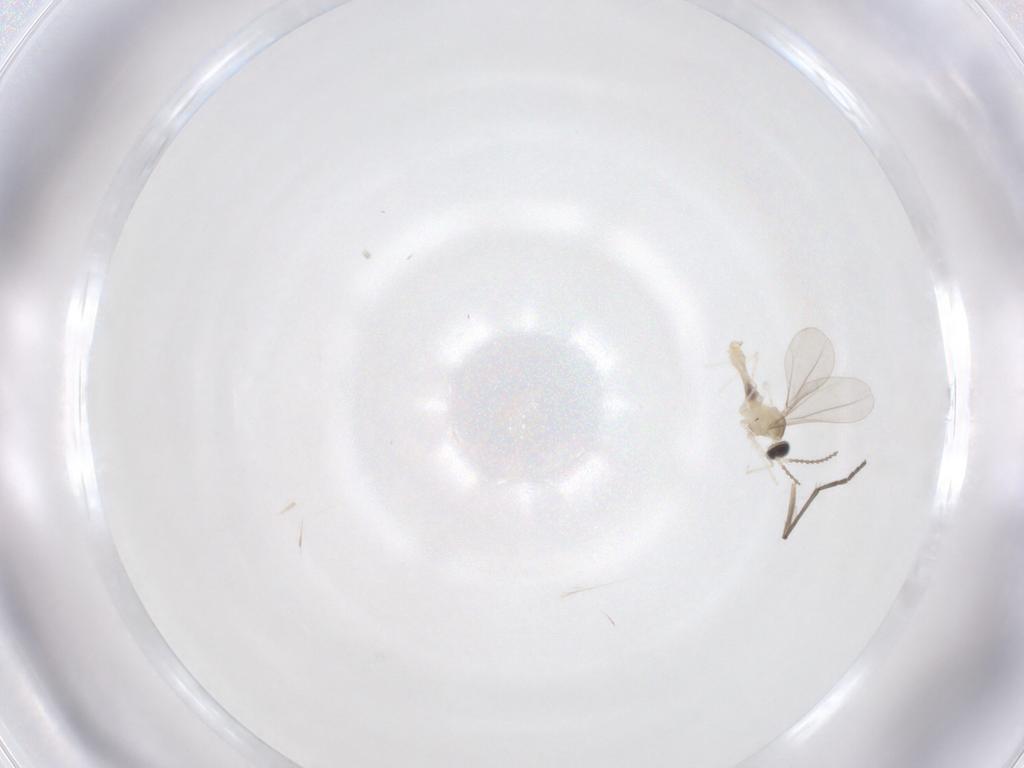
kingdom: Animalia
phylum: Arthropoda
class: Insecta
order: Diptera
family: Cecidomyiidae
